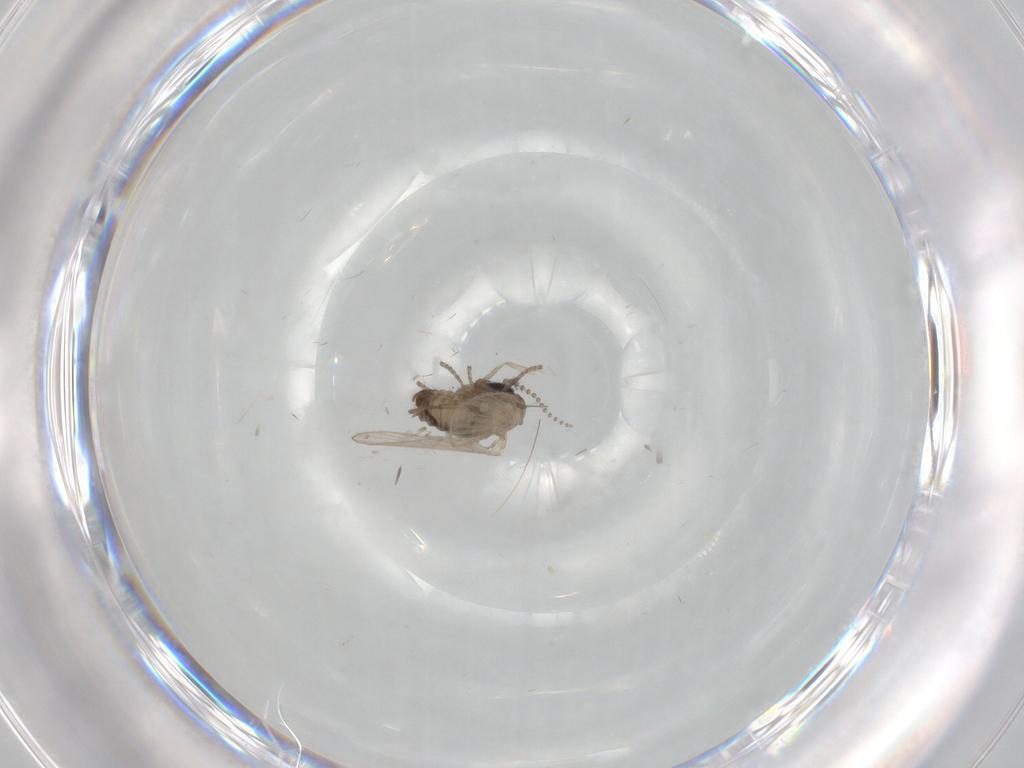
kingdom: Animalia
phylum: Arthropoda
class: Insecta
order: Diptera
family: Psychodidae
